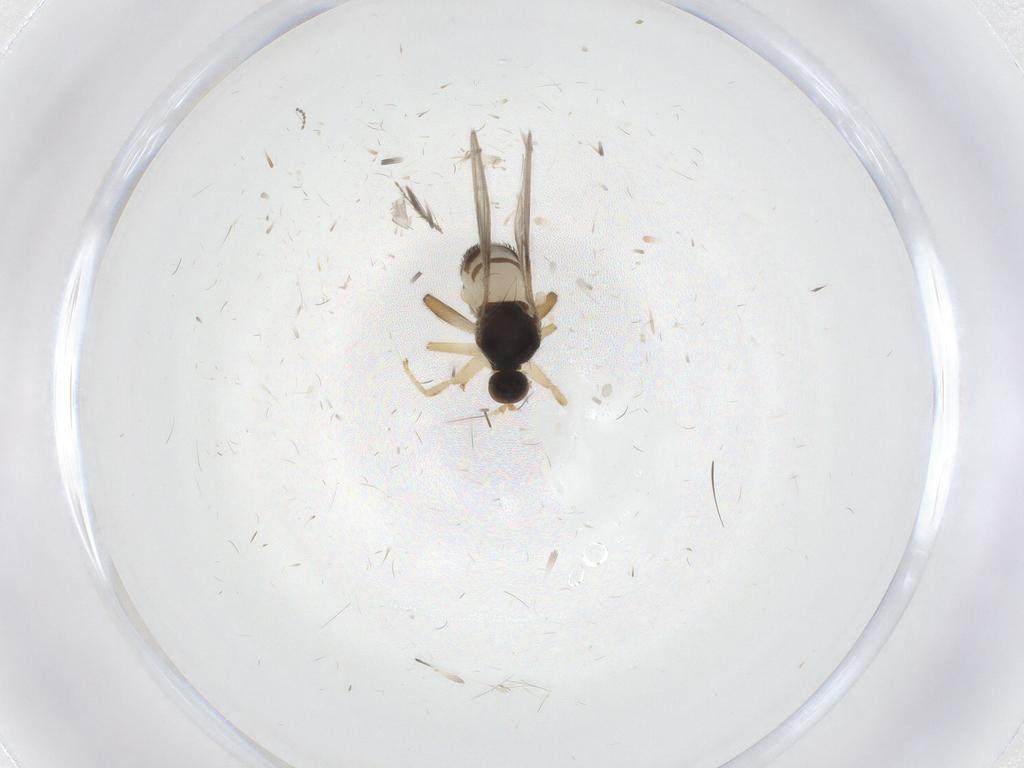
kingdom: Animalia
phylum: Arthropoda
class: Insecta
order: Diptera
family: Hybotidae
